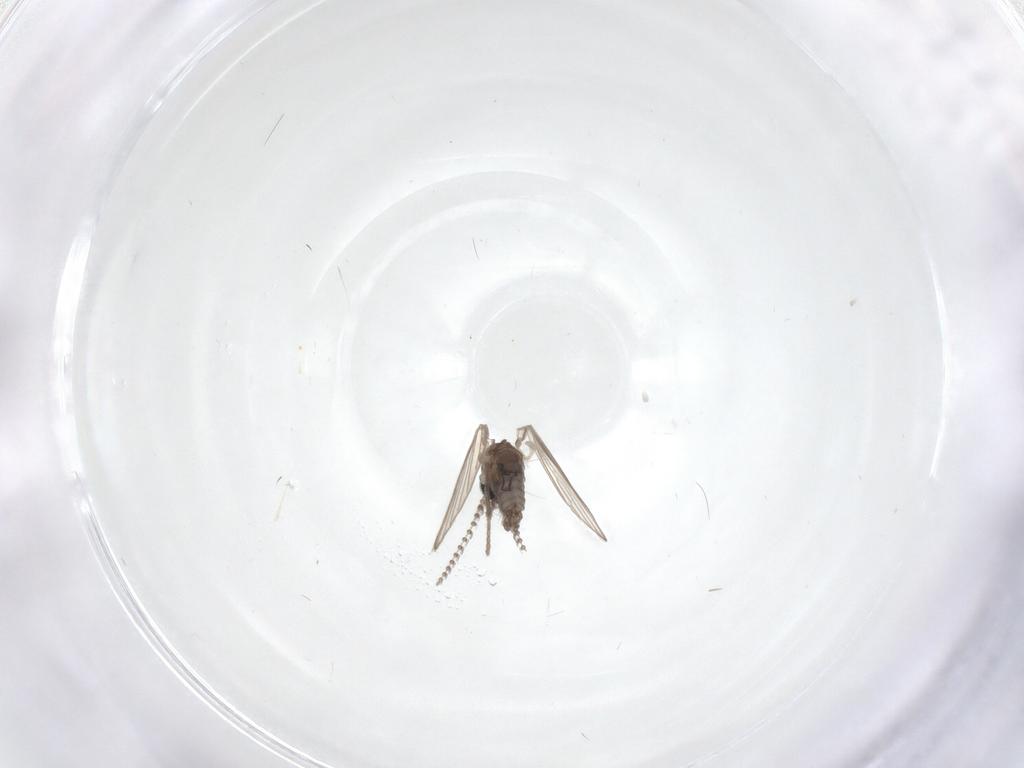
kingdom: Animalia
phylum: Arthropoda
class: Insecta
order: Diptera
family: Psychodidae
